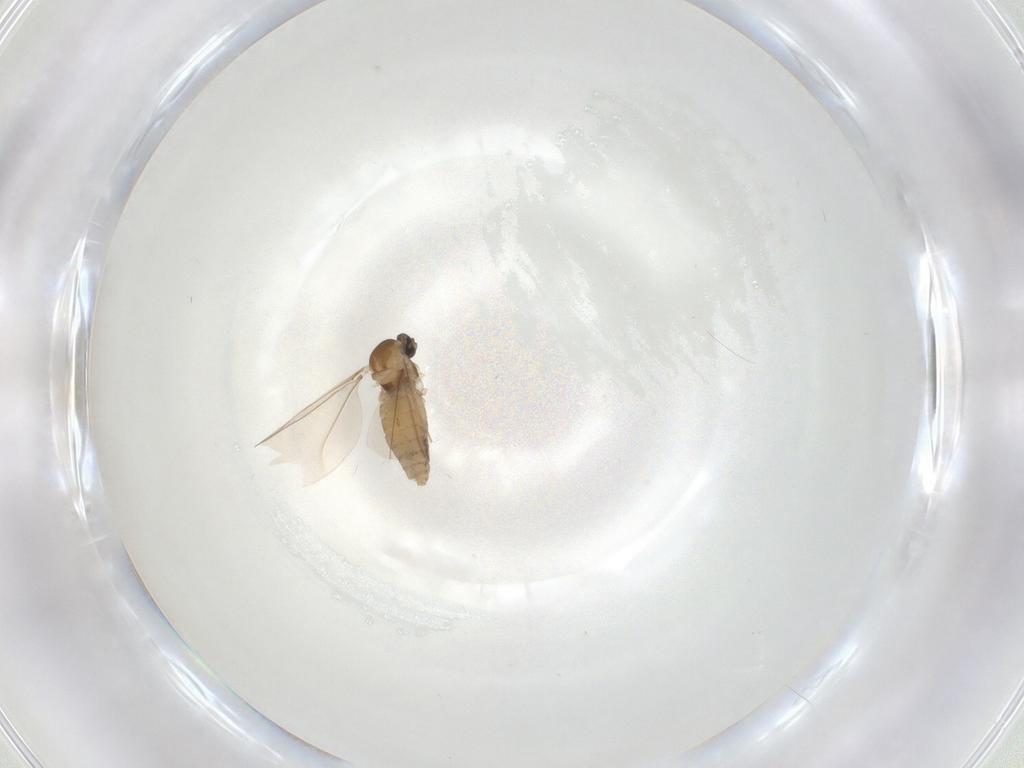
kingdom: Animalia
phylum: Arthropoda
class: Insecta
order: Diptera
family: Cecidomyiidae
